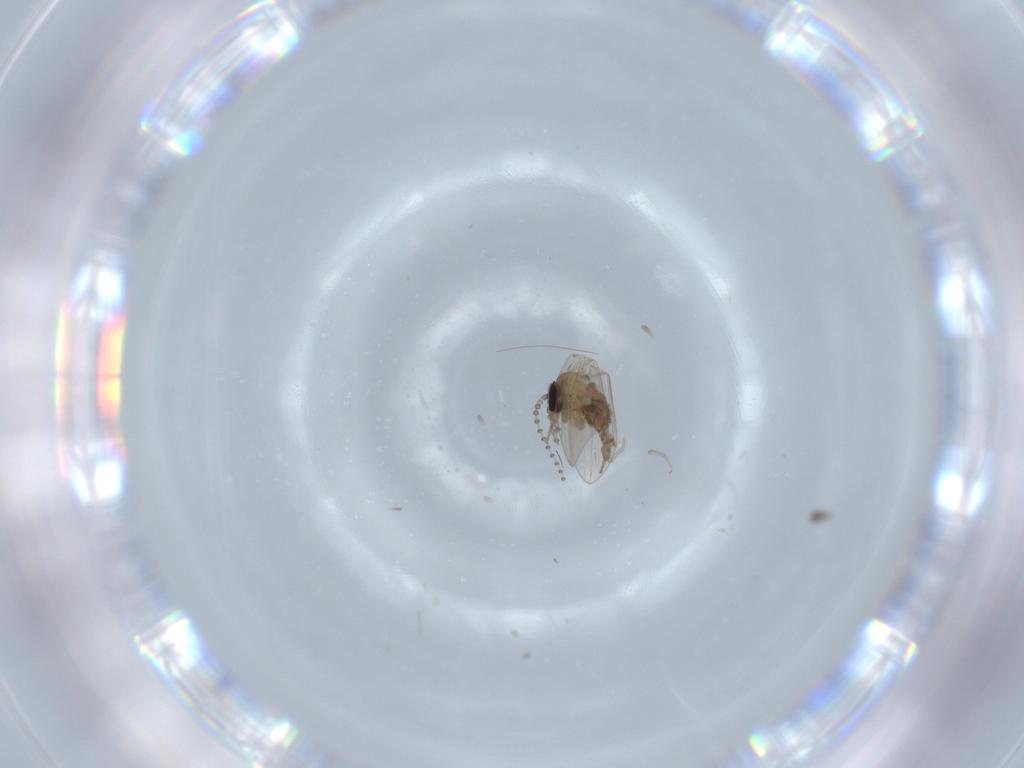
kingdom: Animalia
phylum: Arthropoda
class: Insecta
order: Diptera
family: Psychodidae
